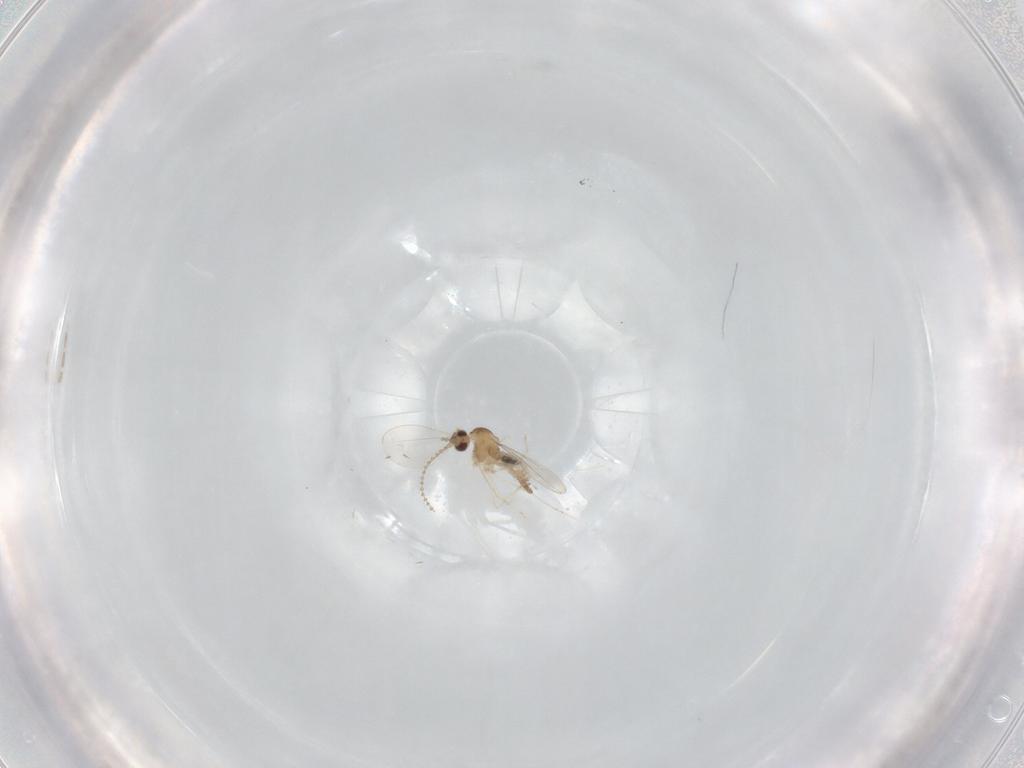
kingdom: Animalia
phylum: Arthropoda
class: Insecta
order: Diptera
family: Cecidomyiidae
